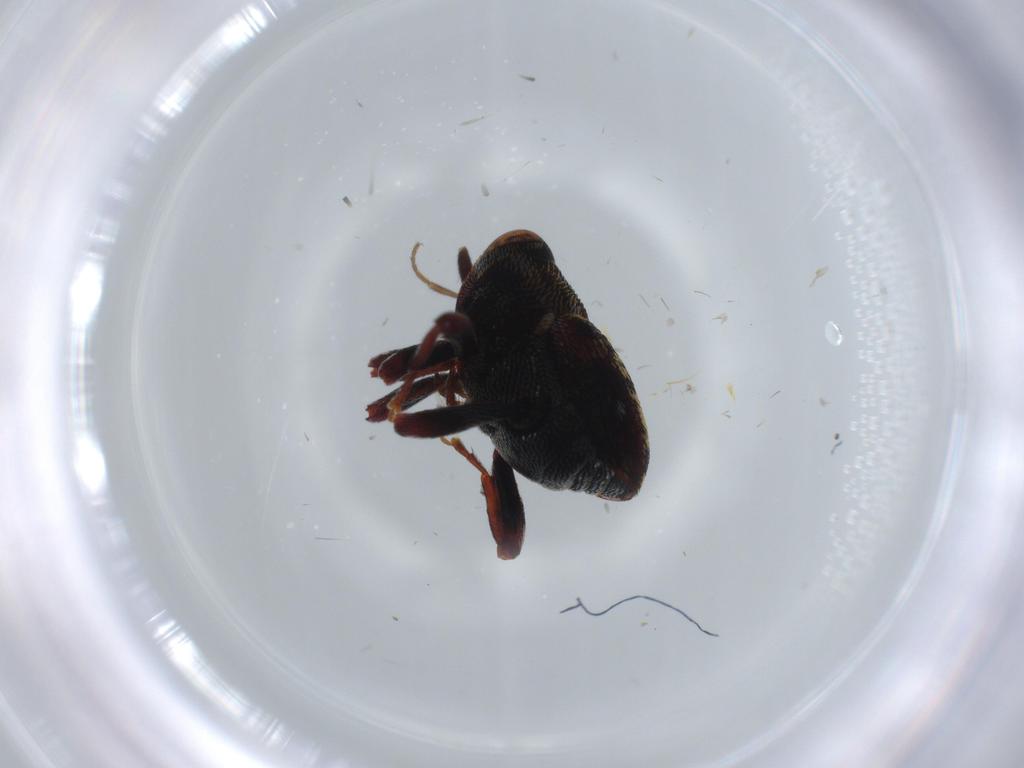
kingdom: Animalia
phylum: Arthropoda
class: Insecta
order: Coleoptera
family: Curculionidae
